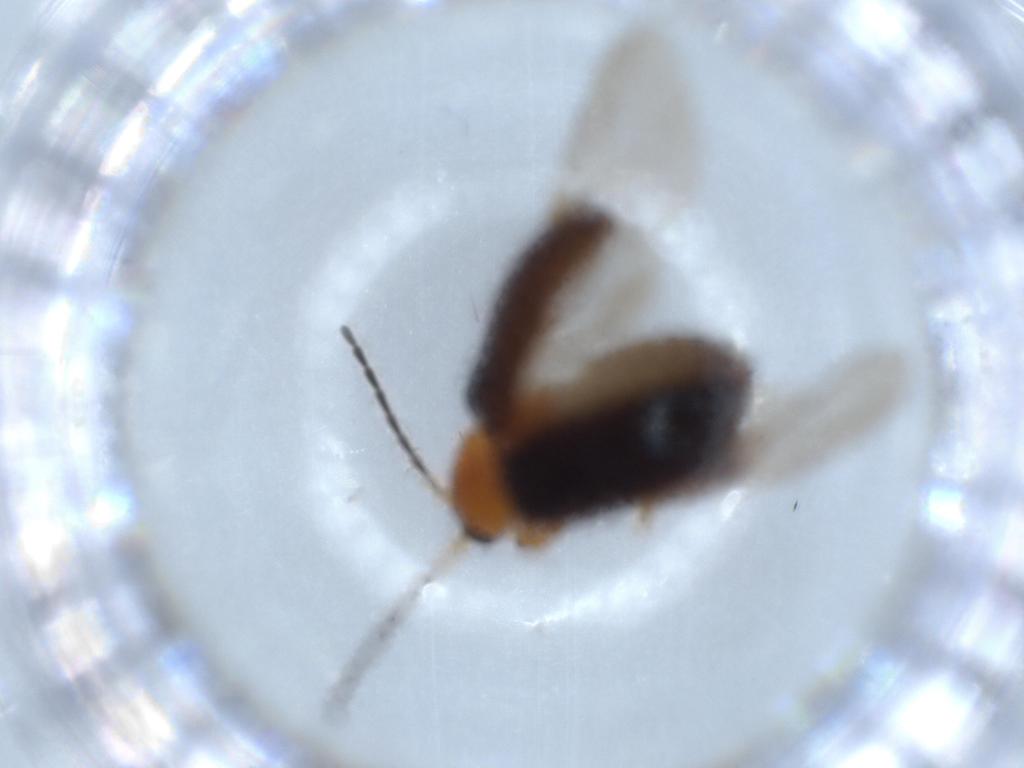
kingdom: Animalia
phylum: Arthropoda
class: Insecta
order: Coleoptera
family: Chrysomelidae
